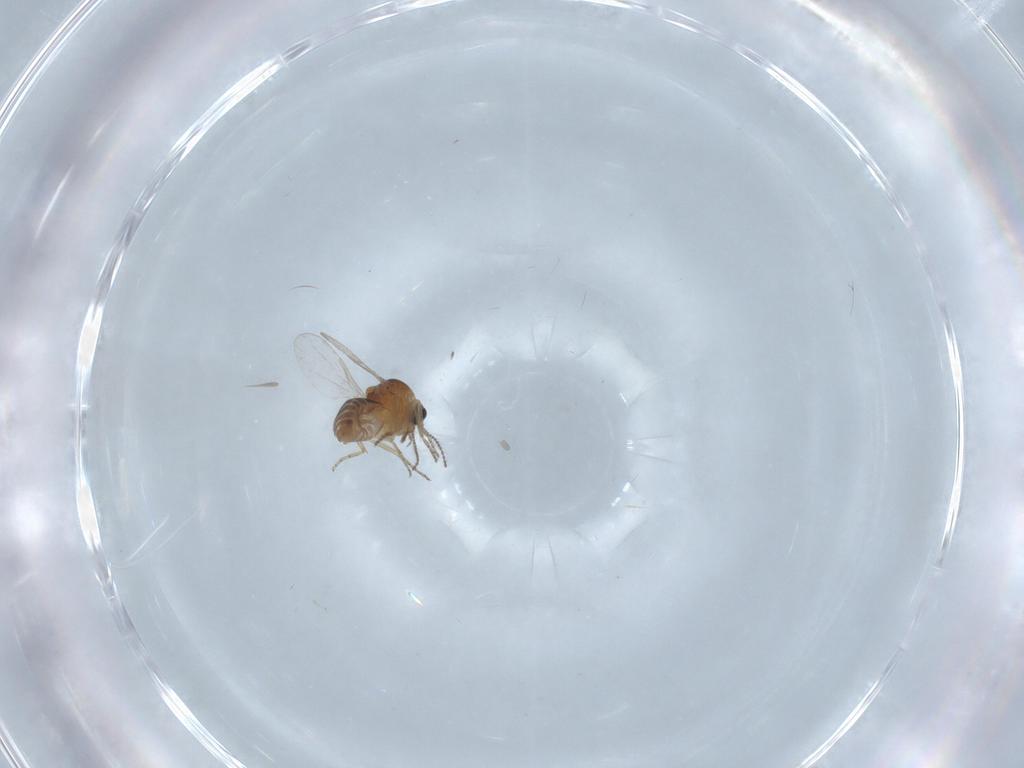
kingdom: Animalia
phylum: Arthropoda
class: Insecta
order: Diptera
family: Ceratopogonidae
